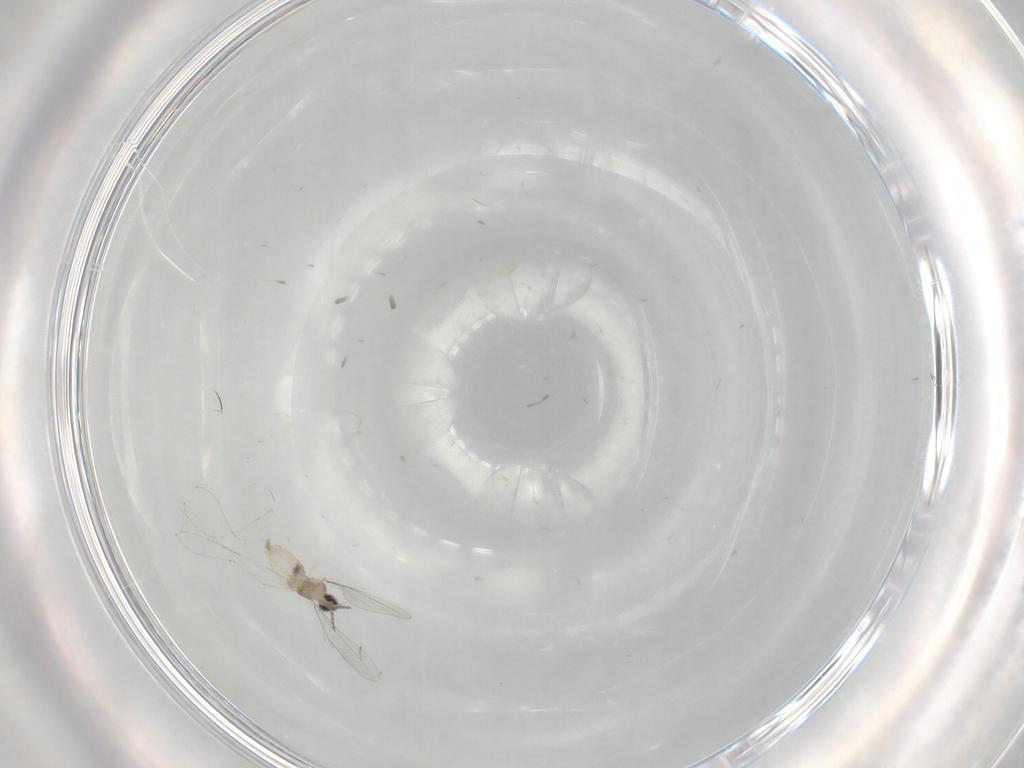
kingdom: Animalia
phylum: Arthropoda
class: Insecta
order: Diptera
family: Cecidomyiidae
